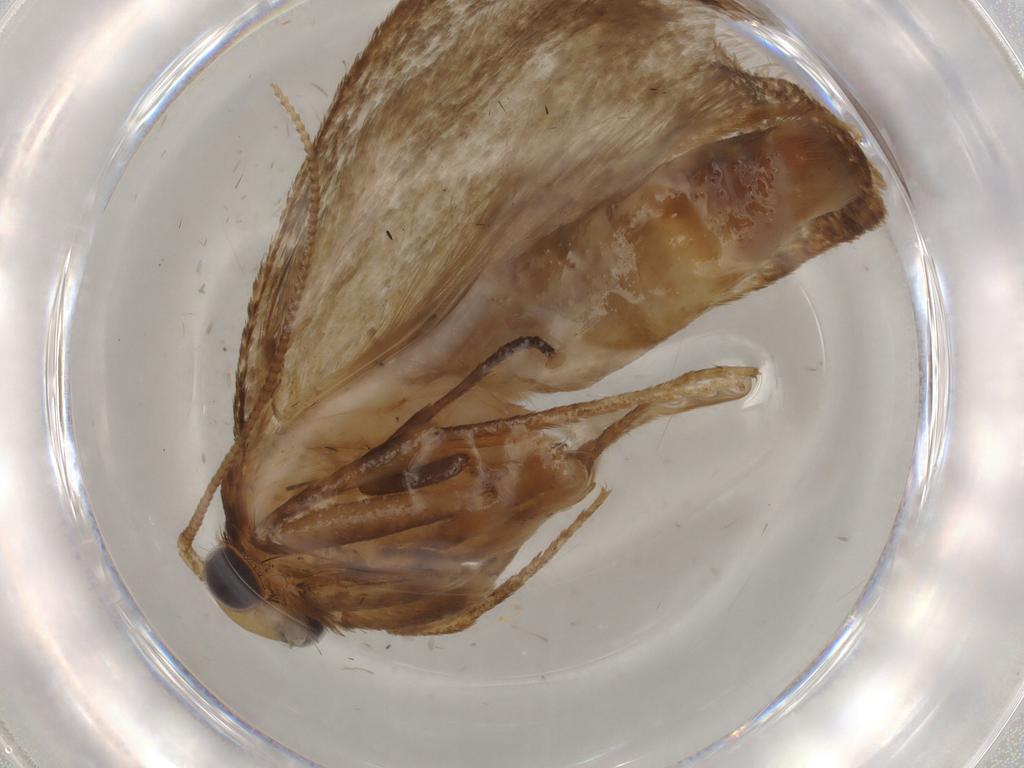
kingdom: Animalia
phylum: Arthropoda
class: Insecta
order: Lepidoptera
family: Tineidae
